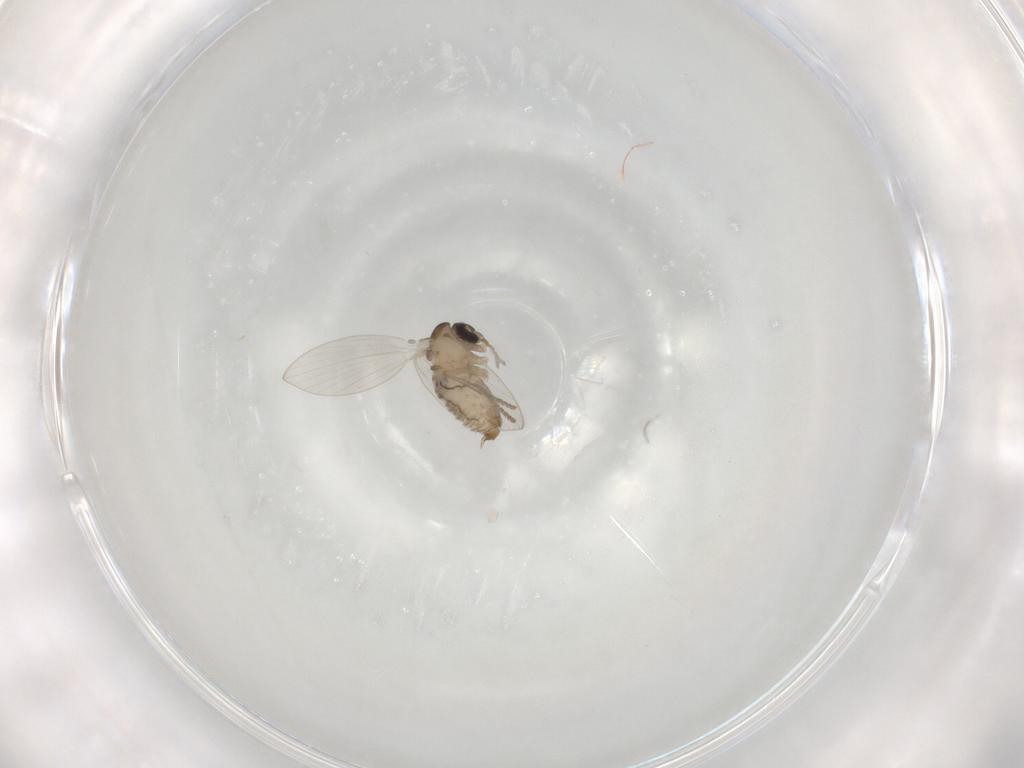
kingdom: Animalia
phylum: Arthropoda
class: Insecta
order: Diptera
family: Psychodidae
